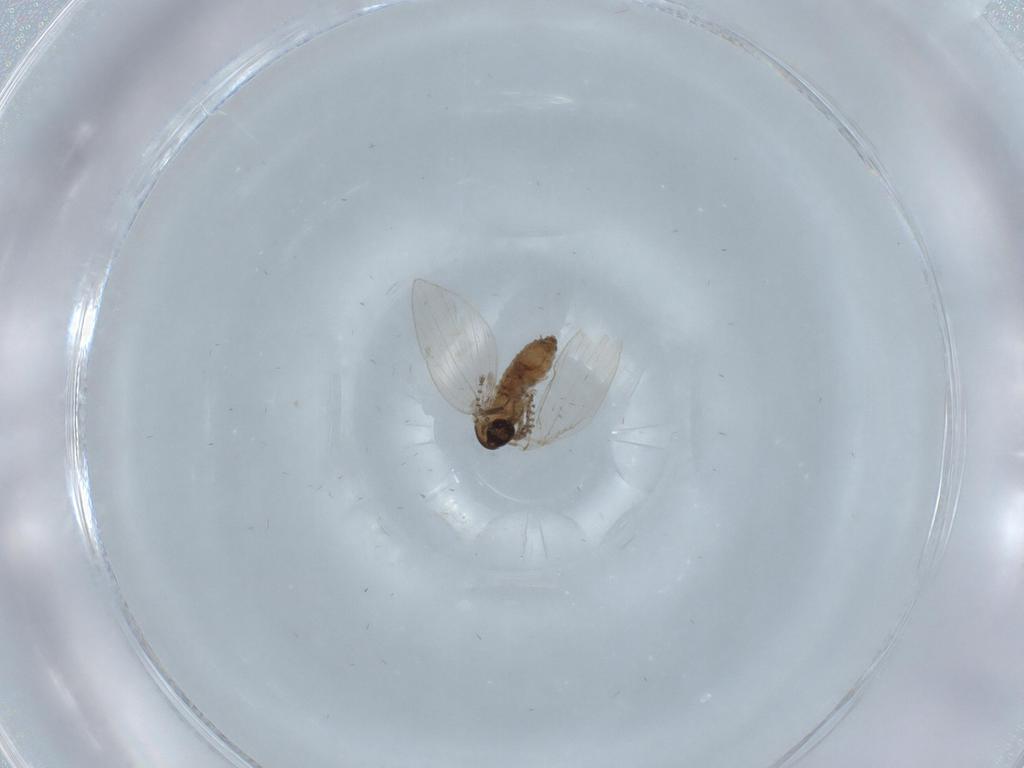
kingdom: Animalia
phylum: Arthropoda
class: Insecta
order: Diptera
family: Psychodidae
